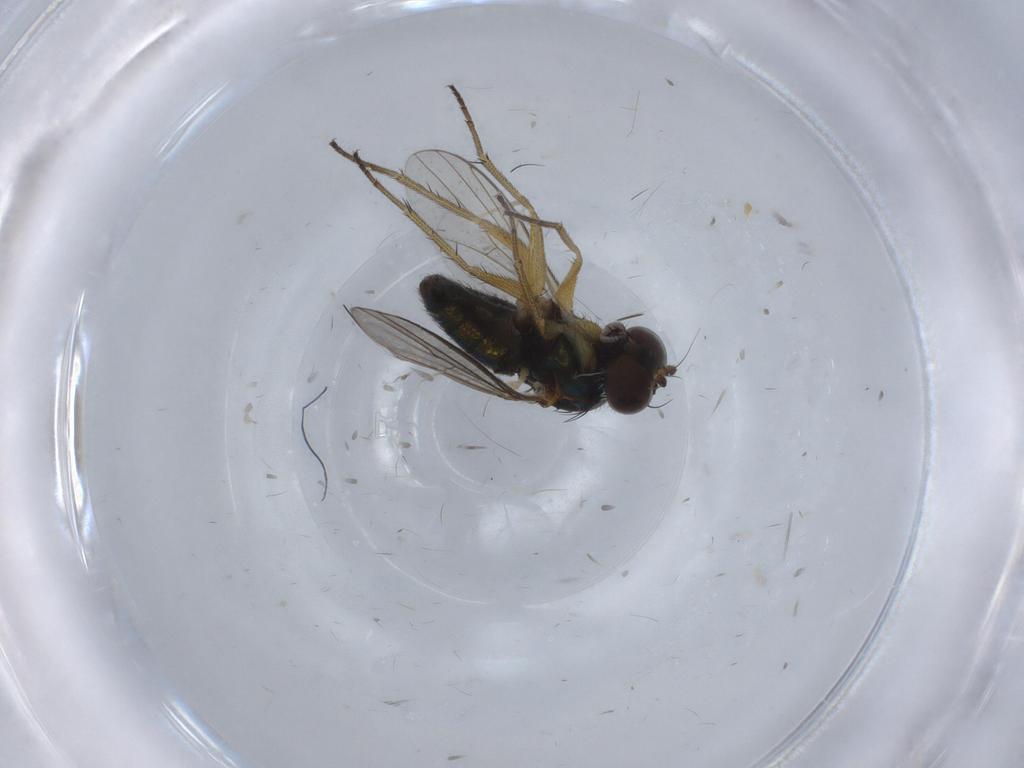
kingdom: Animalia
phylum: Arthropoda
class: Insecta
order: Diptera
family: Chironomidae
